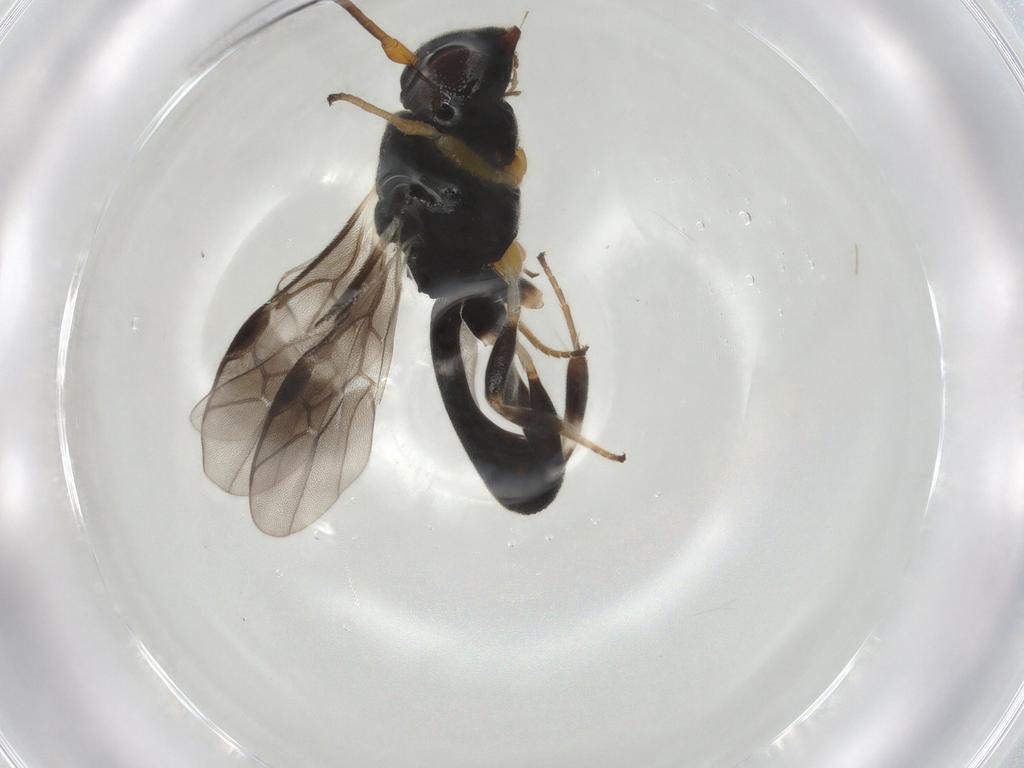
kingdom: Animalia
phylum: Arthropoda
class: Insecta
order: Hymenoptera
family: Braconidae
